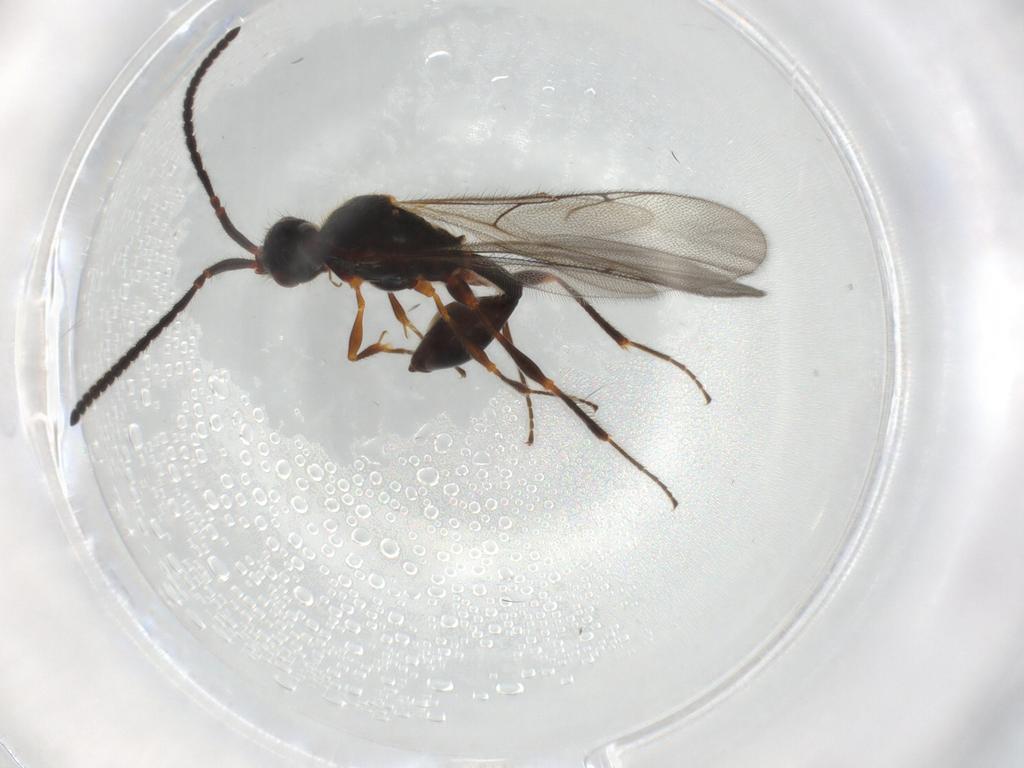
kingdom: Animalia
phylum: Arthropoda
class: Insecta
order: Hymenoptera
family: Diapriidae
